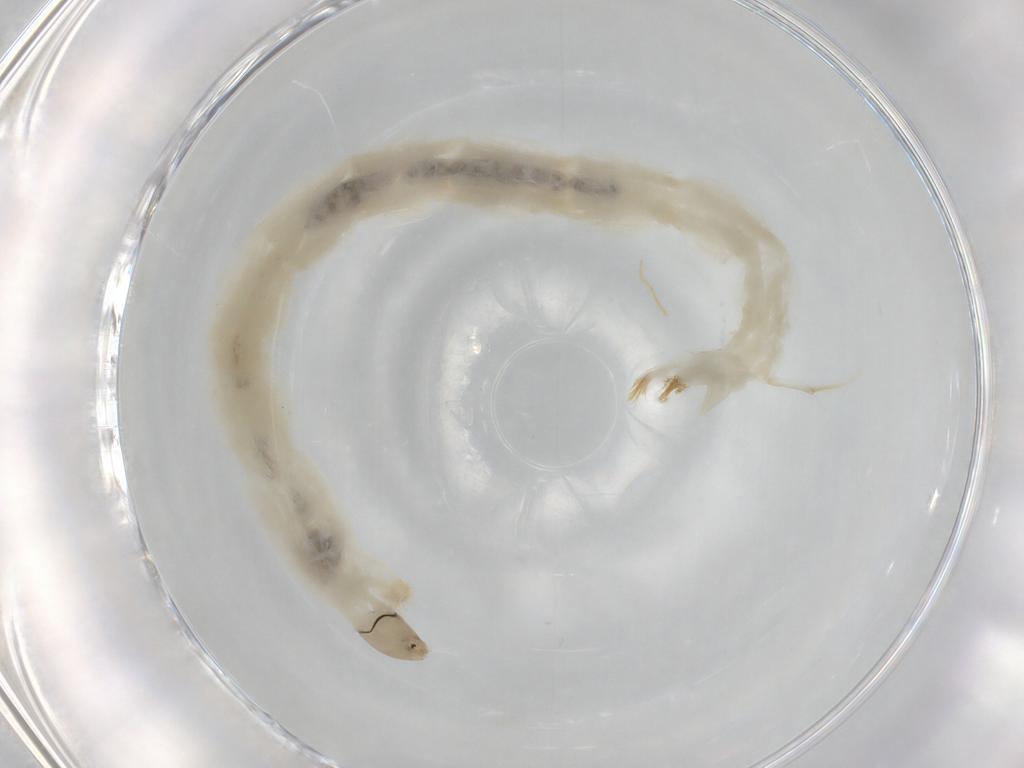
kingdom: Animalia
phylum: Arthropoda
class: Insecta
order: Diptera
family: Chironomidae
